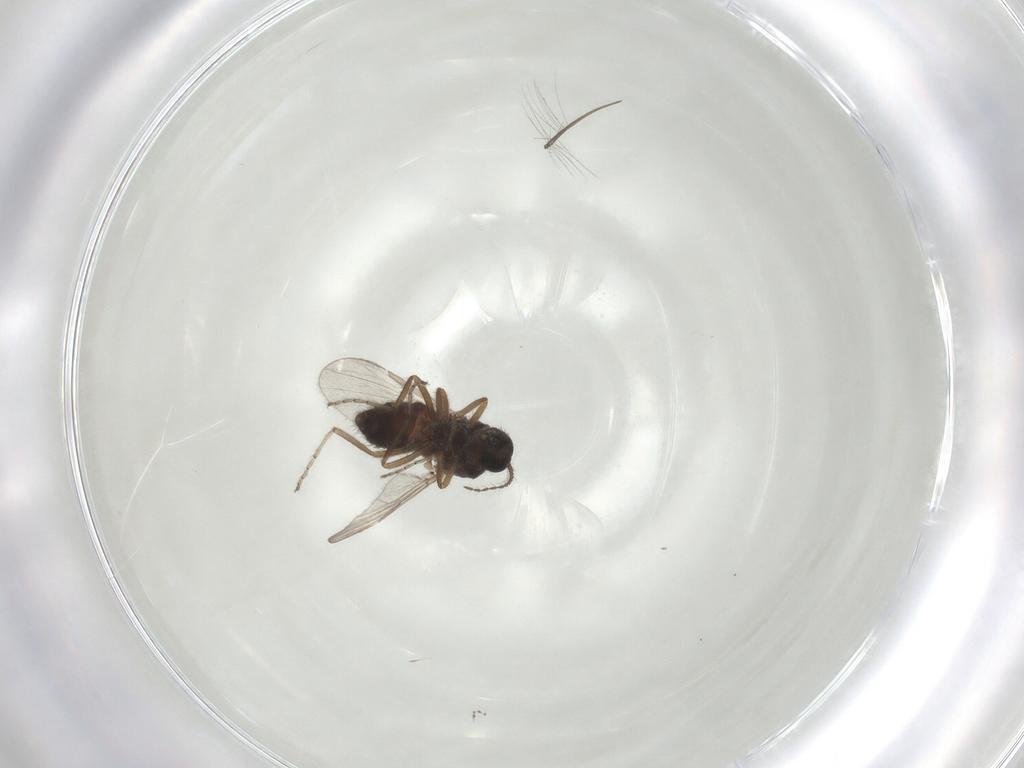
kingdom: Animalia
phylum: Arthropoda
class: Insecta
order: Diptera
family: Ceratopogonidae
